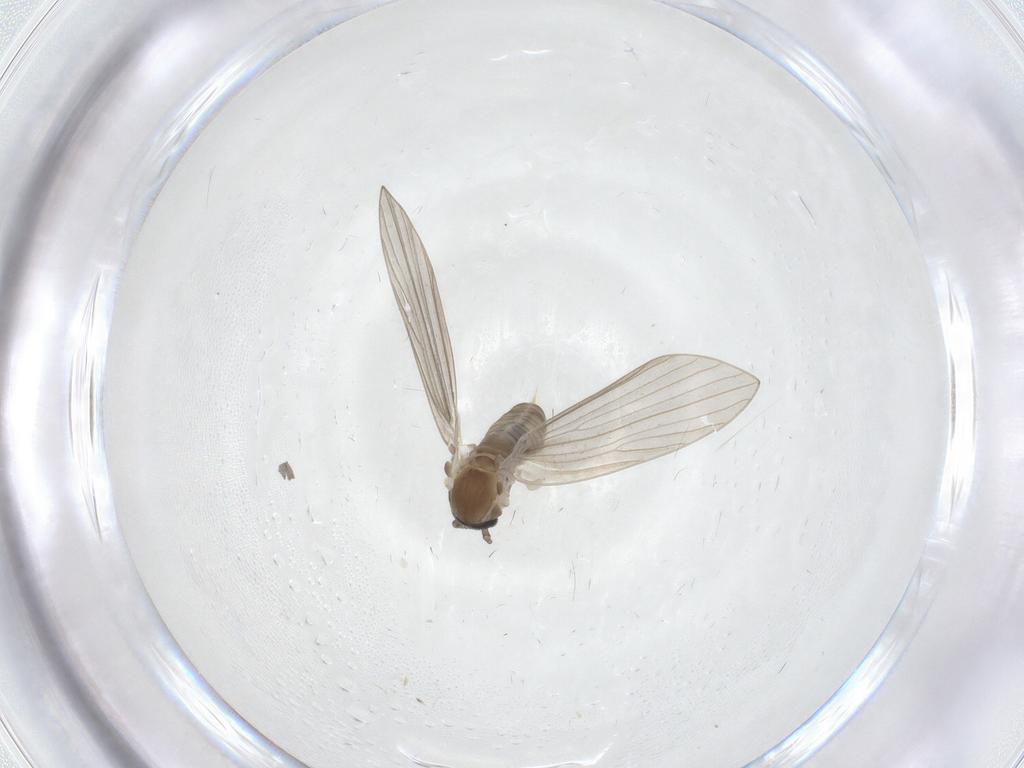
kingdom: Animalia
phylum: Arthropoda
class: Insecta
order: Diptera
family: Psychodidae
